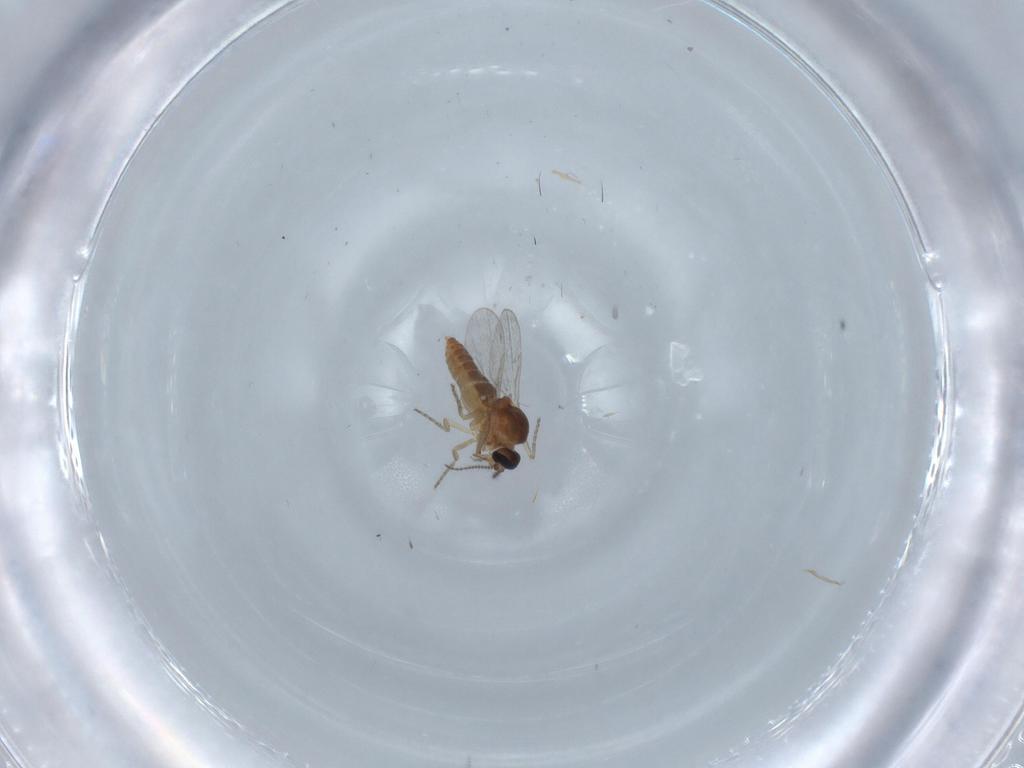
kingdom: Animalia
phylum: Arthropoda
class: Insecta
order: Diptera
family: Ceratopogonidae
